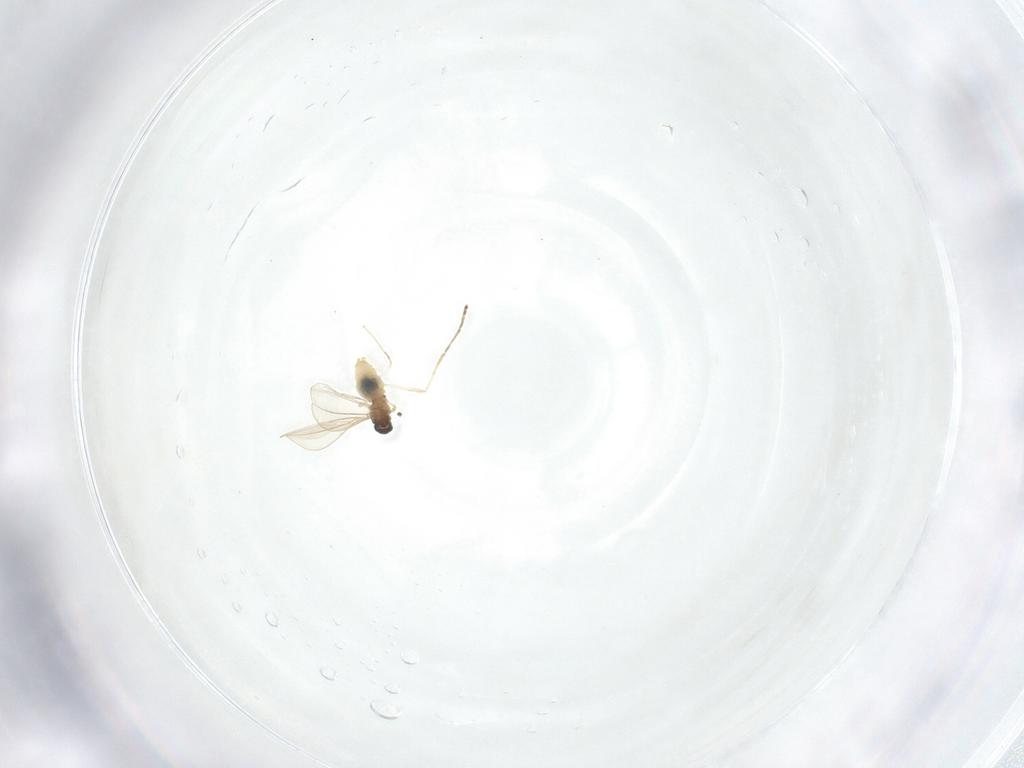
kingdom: Animalia
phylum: Arthropoda
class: Insecta
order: Diptera
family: Cecidomyiidae
